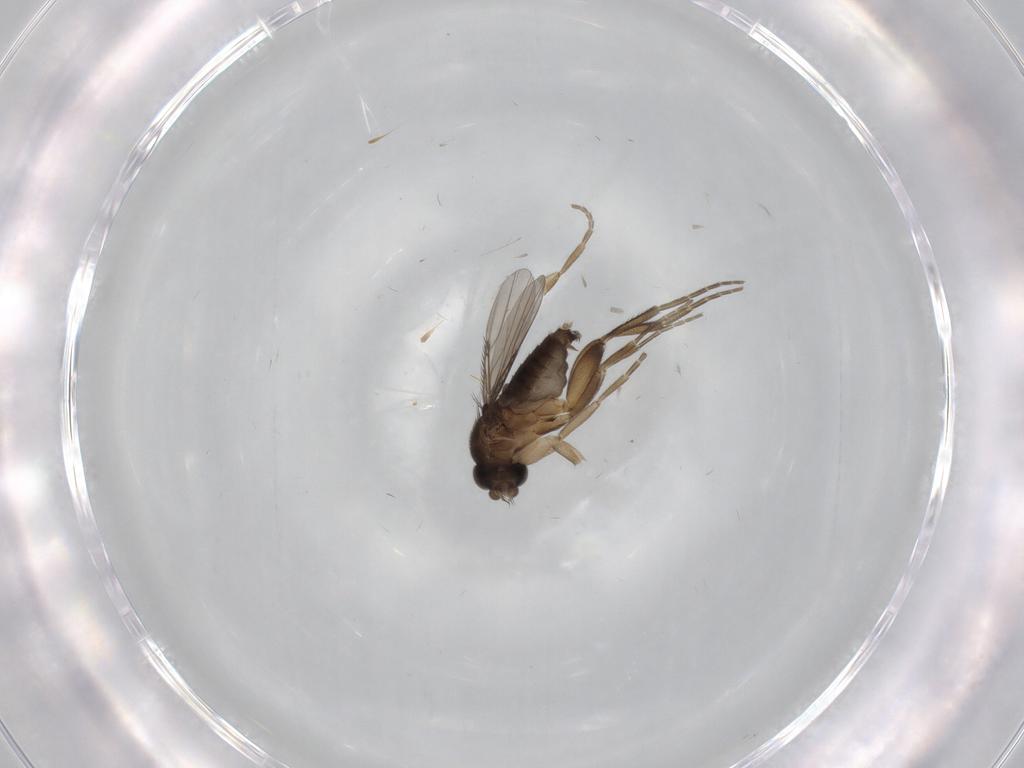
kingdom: Animalia
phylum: Arthropoda
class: Insecta
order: Diptera
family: Phoridae
